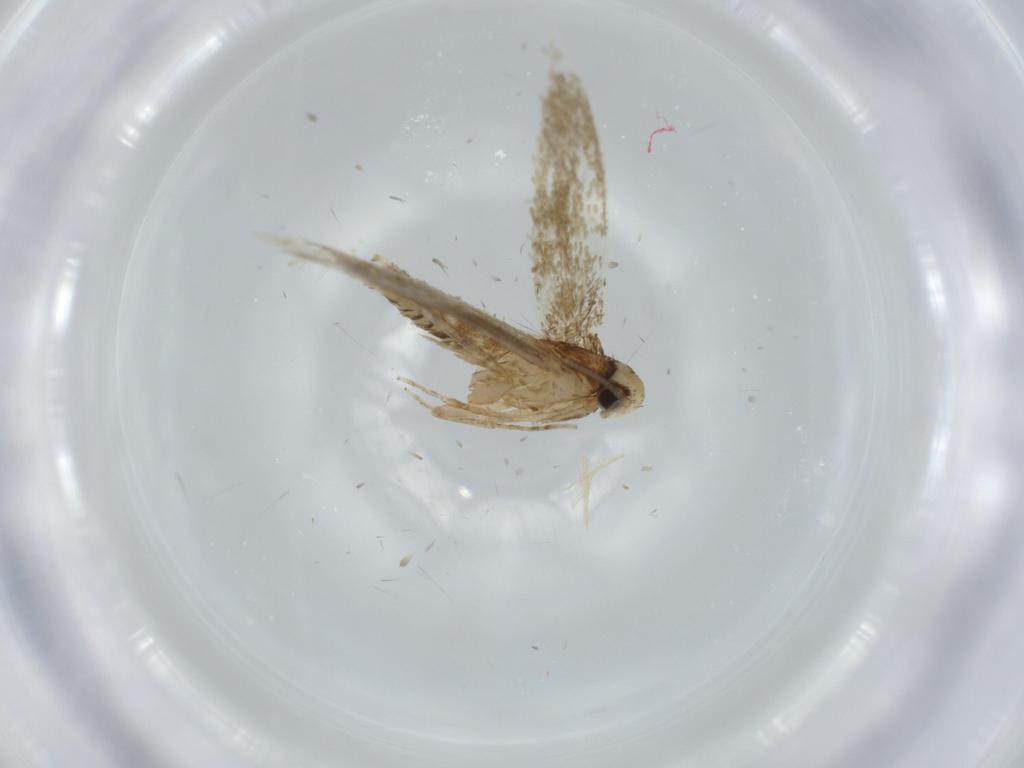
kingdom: Animalia
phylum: Arthropoda
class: Insecta
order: Lepidoptera
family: Tineidae
